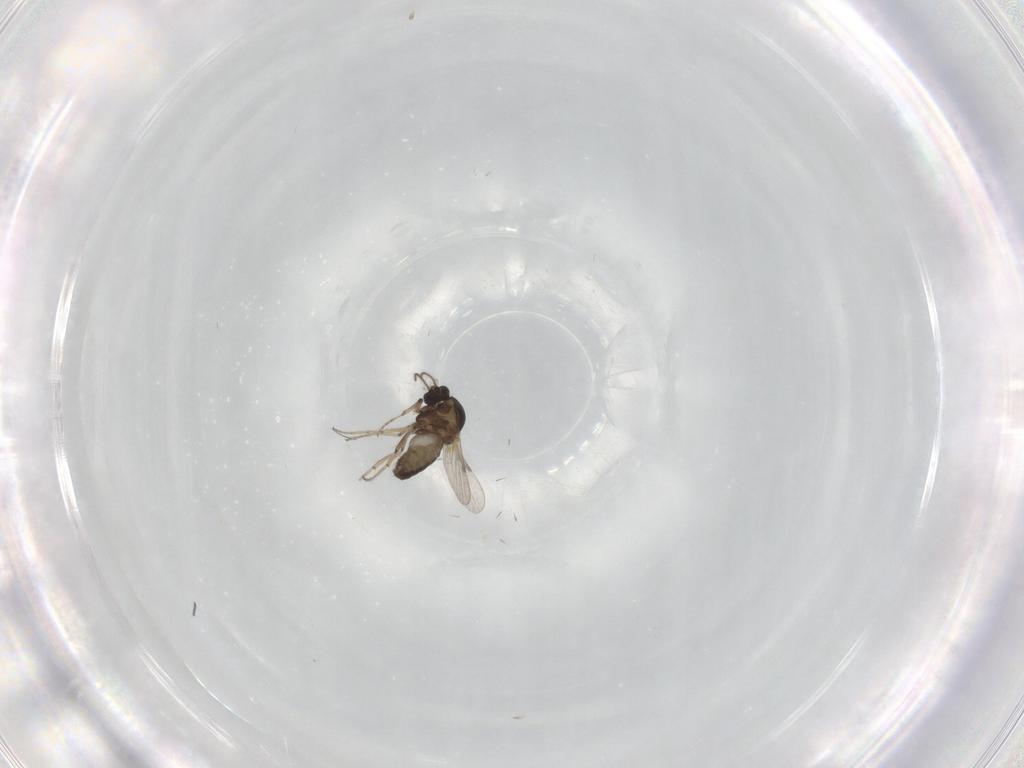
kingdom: Animalia
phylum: Arthropoda
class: Insecta
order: Diptera
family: Ceratopogonidae
